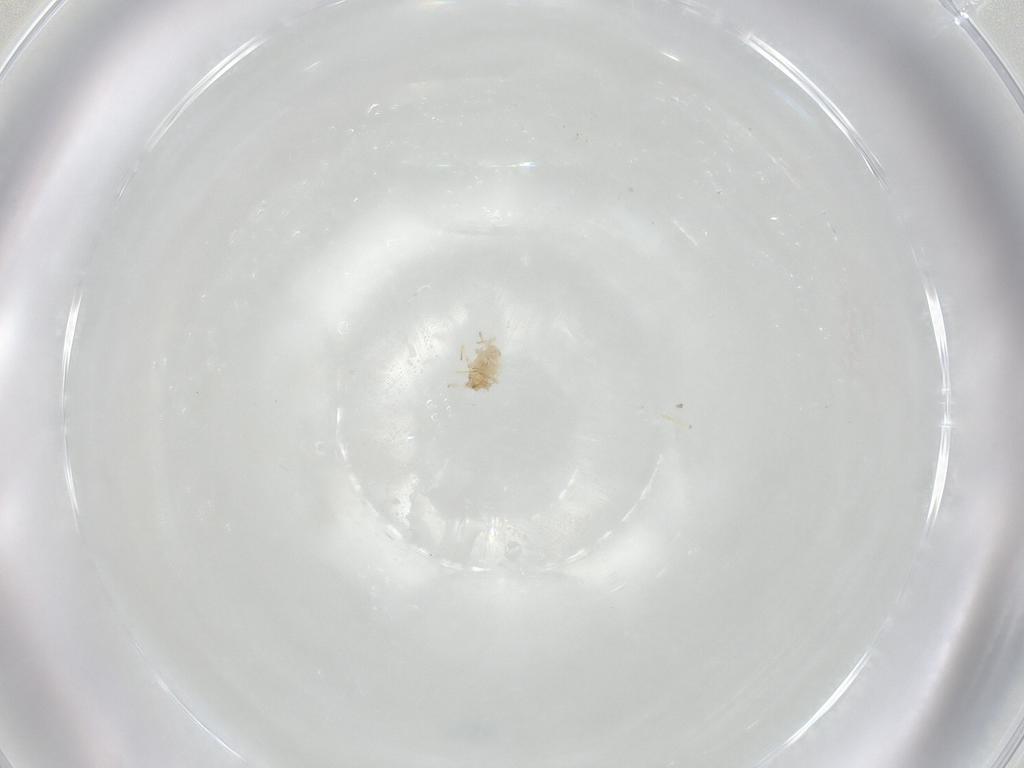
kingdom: Animalia
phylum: Arthropoda
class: Insecta
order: Neuroptera
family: Coniopterygidae
